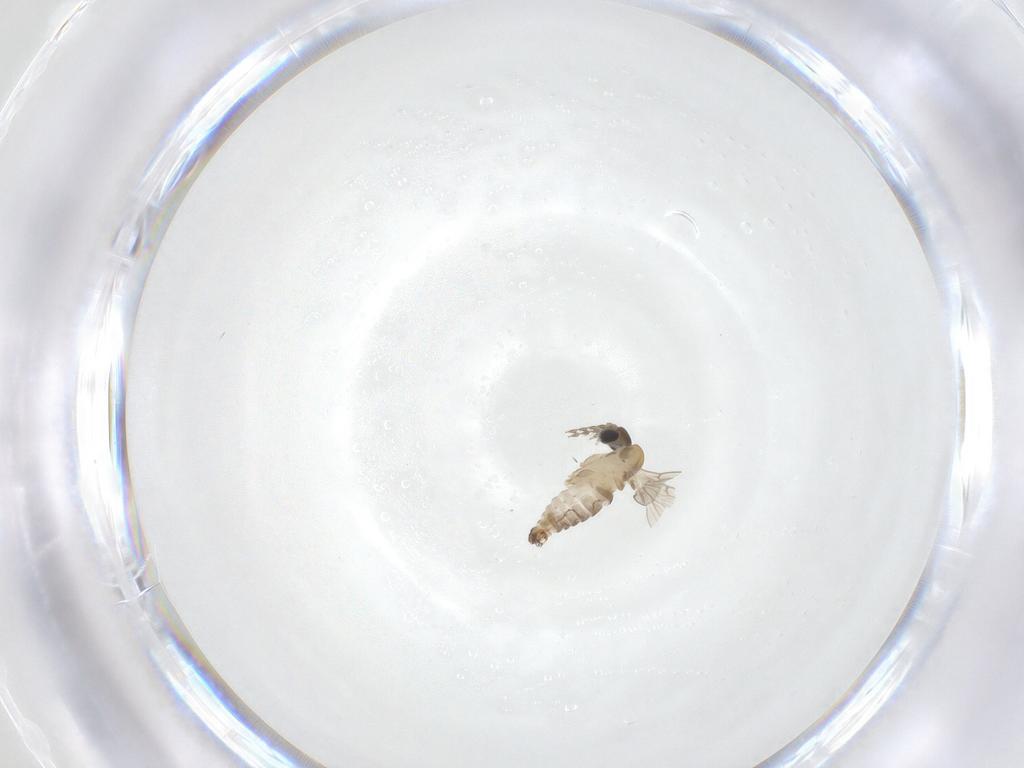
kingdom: Animalia
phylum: Arthropoda
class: Insecta
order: Diptera
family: Psychodidae
